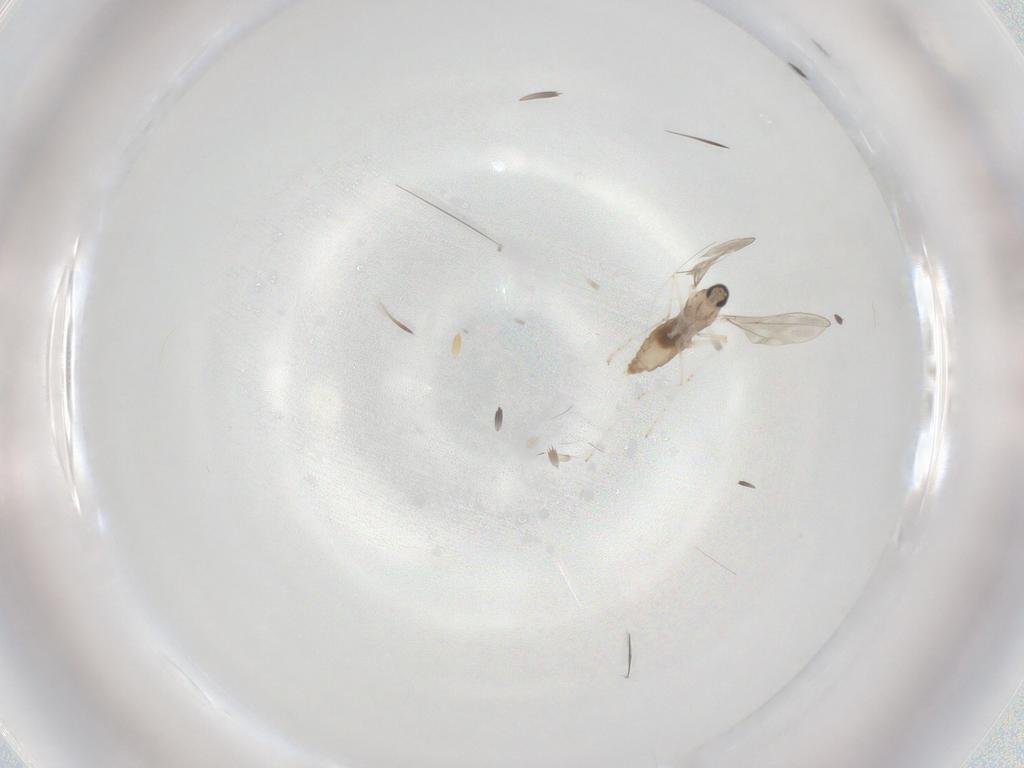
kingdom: Animalia
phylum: Arthropoda
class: Insecta
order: Diptera
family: Cecidomyiidae
